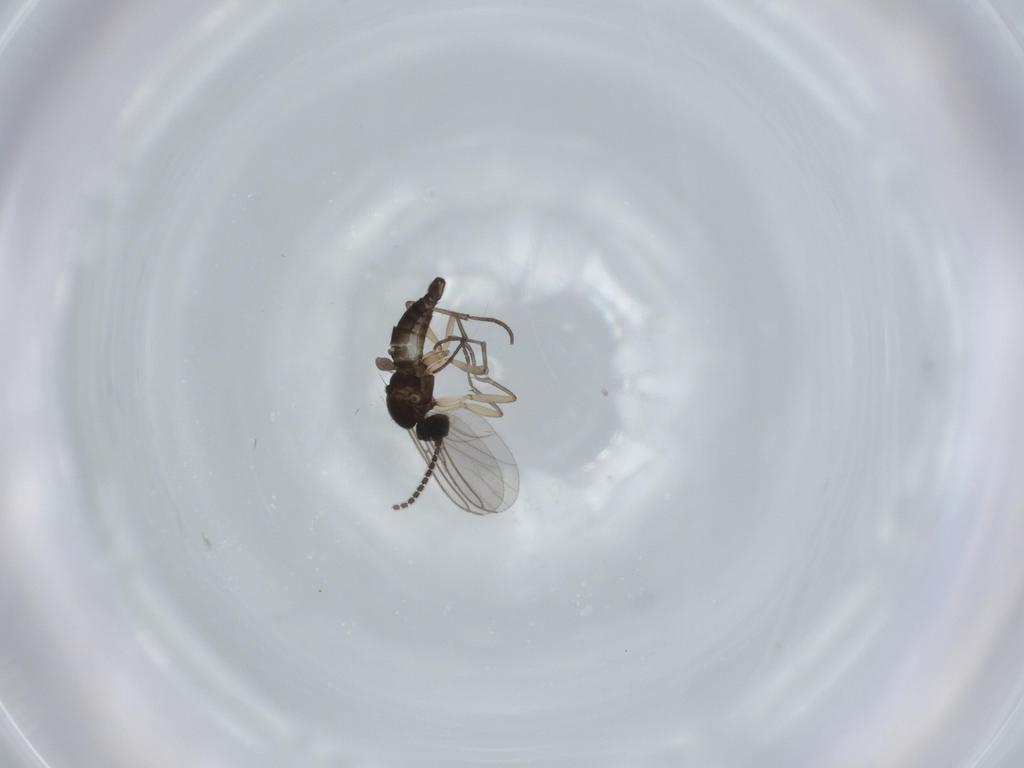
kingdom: Animalia
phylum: Arthropoda
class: Insecta
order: Diptera
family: Sciaridae
